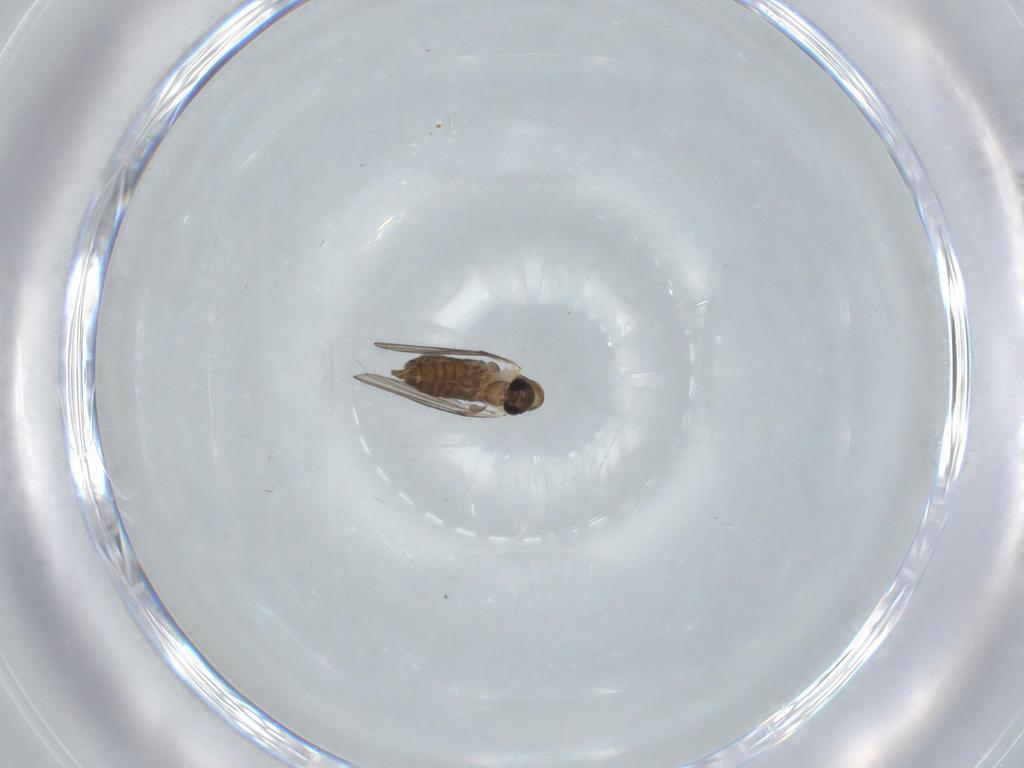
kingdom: Animalia
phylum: Arthropoda
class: Insecta
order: Diptera
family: Psychodidae
